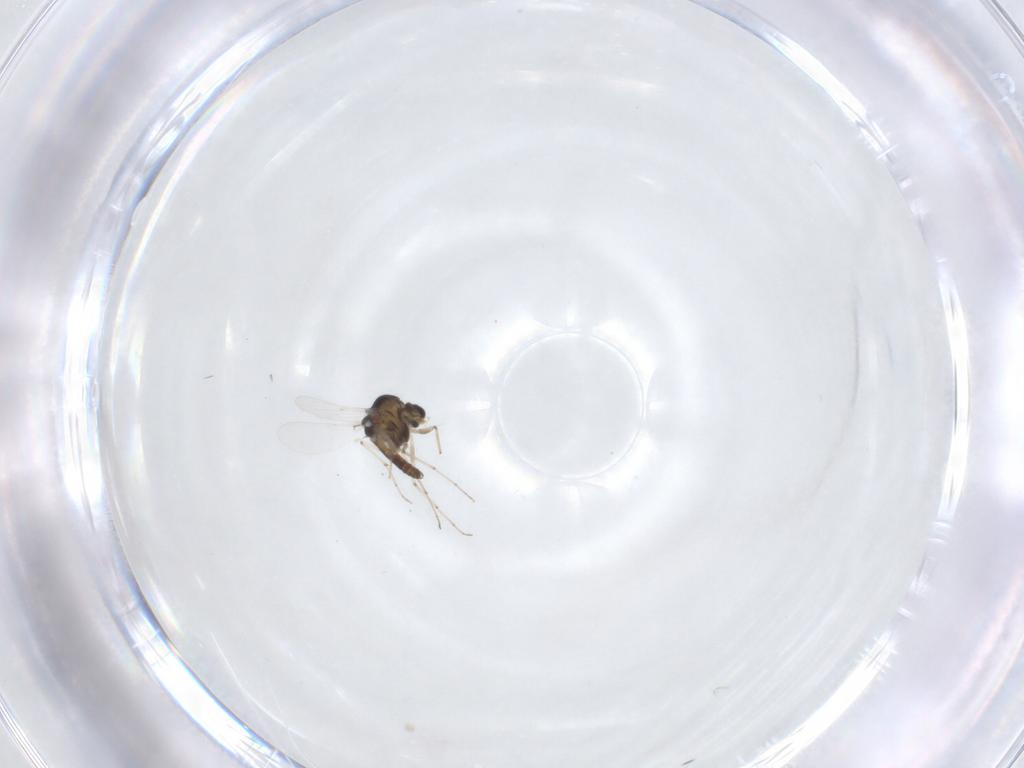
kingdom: Animalia
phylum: Arthropoda
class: Insecta
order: Diptera
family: Chironomidae
